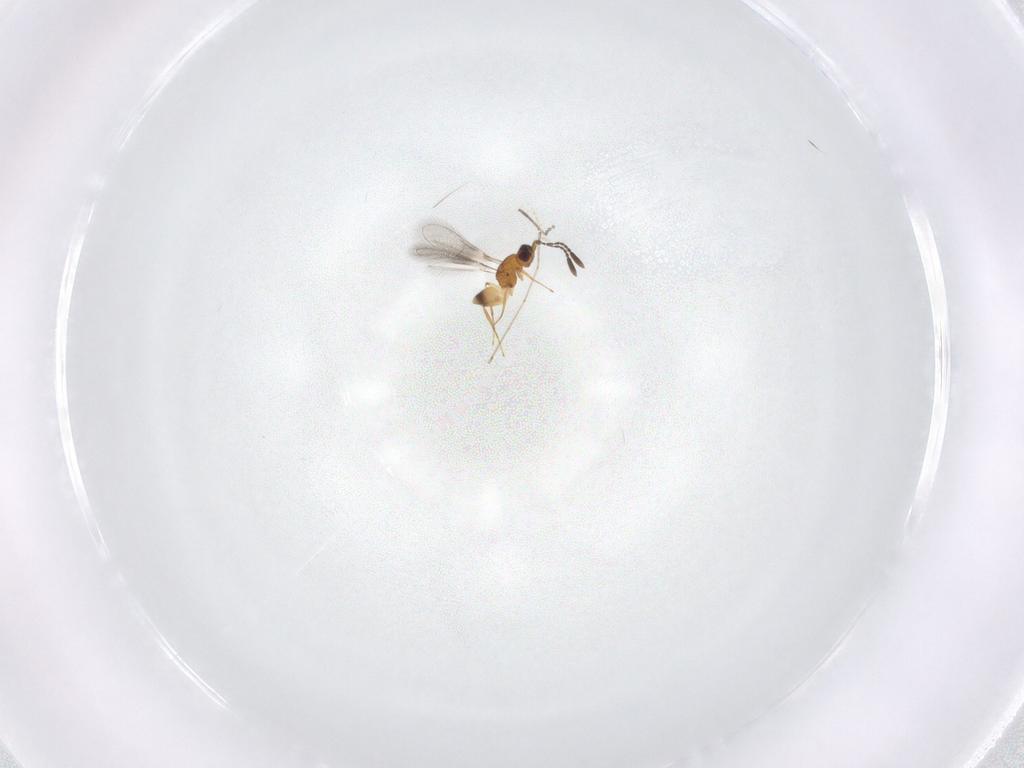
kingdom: Animalia
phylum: Arthropoda
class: Insecta
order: Hymenoptera
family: Mymaridae
